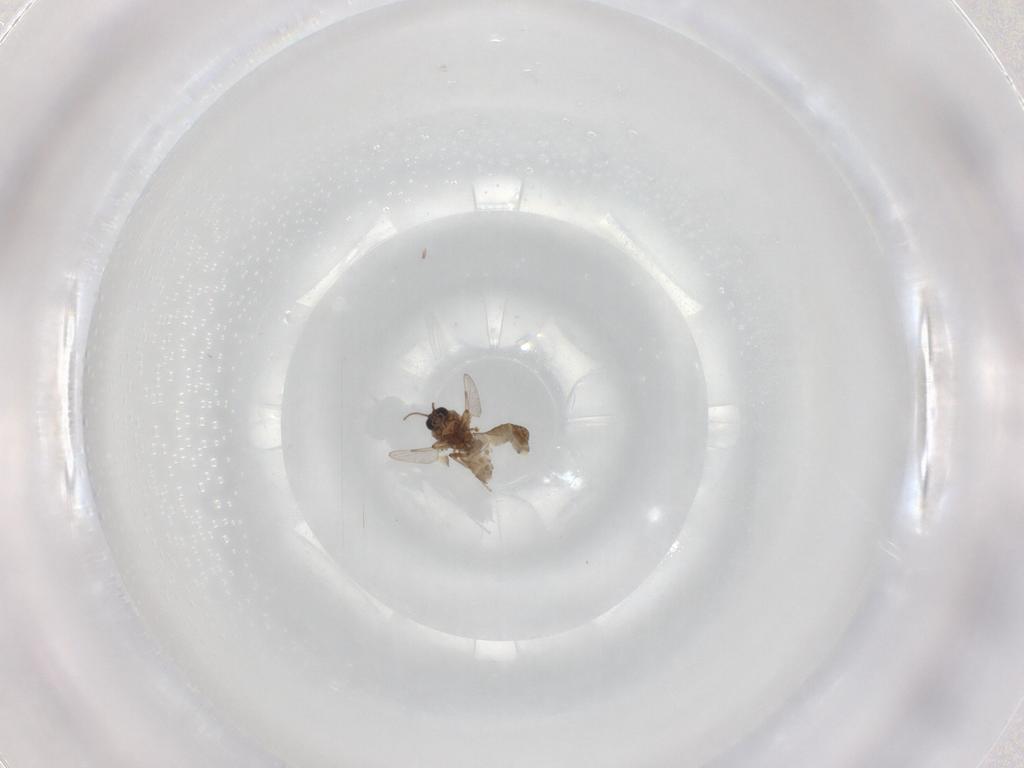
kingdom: Animalia
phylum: Arthropoda
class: Insecta
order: Diptera
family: Ceratopogonidae
